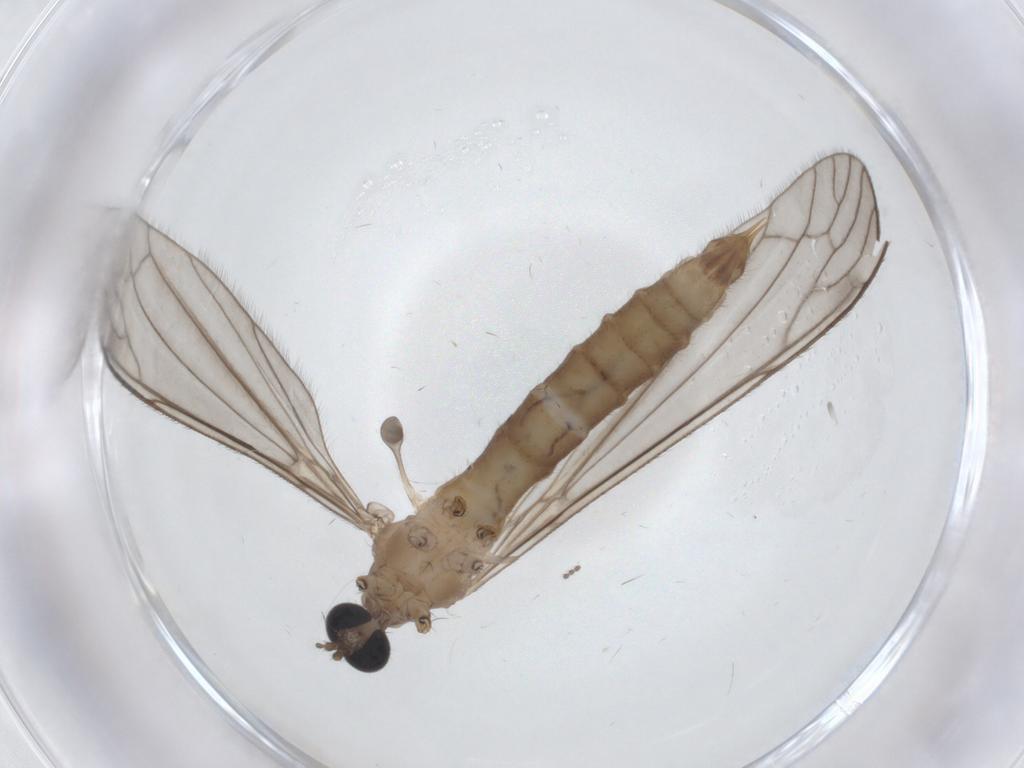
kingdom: Animalia
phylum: Arthropoda
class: Insecta
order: Diptera
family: Limoniidae
